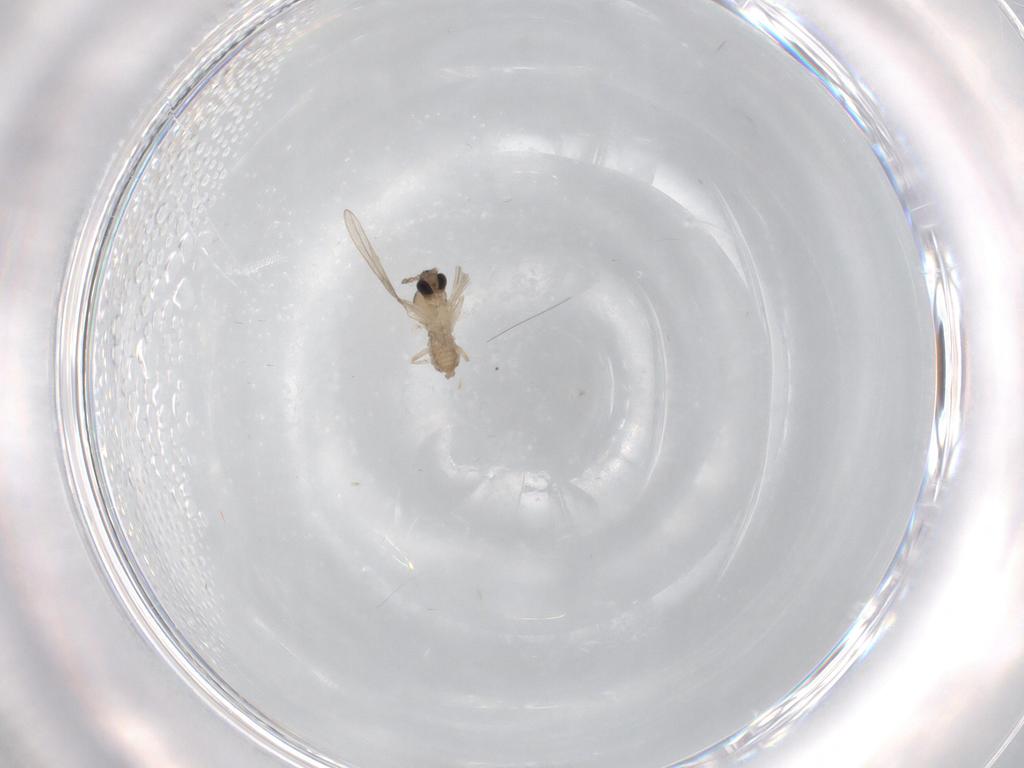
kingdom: Animalia
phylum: Arthropoda
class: Insecta
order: Diptera
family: Cecidomyiidae
